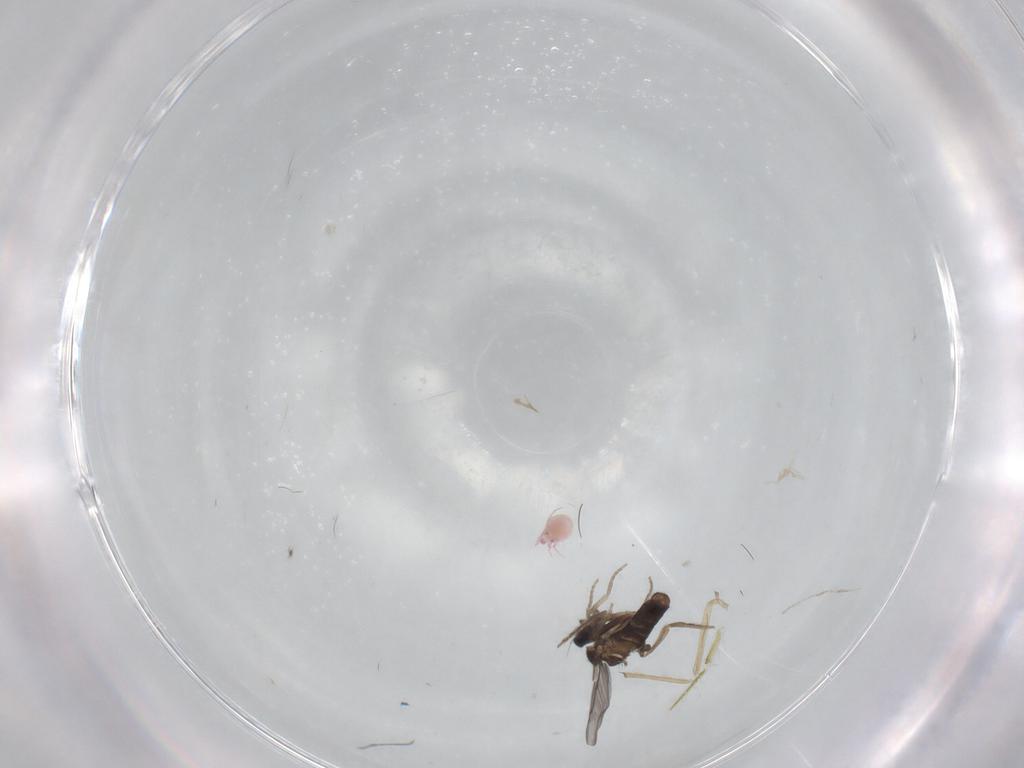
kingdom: Animalia
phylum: Arthropoda
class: Insecta
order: Diptera
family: Cecidomyiidae
